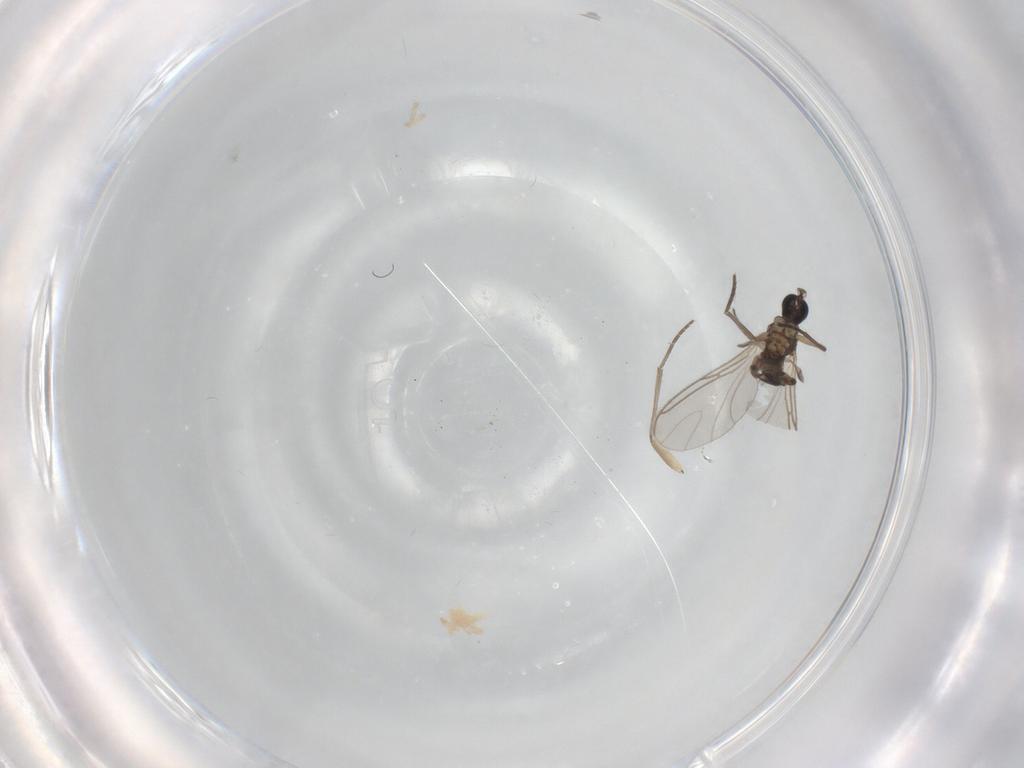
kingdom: Animalia
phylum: Arthropoda
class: Insecta
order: Diptera
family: Sciaridae
